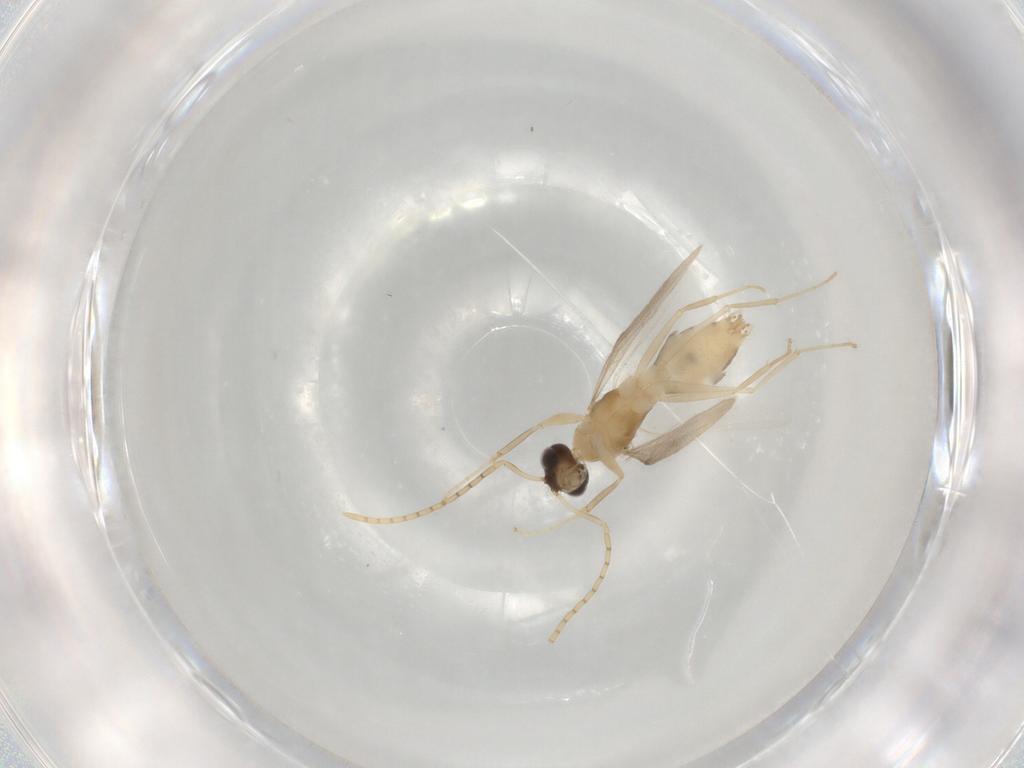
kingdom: Animalia
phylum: Arthropoda
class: Insecta
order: Hymenoptera
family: Formicidae
